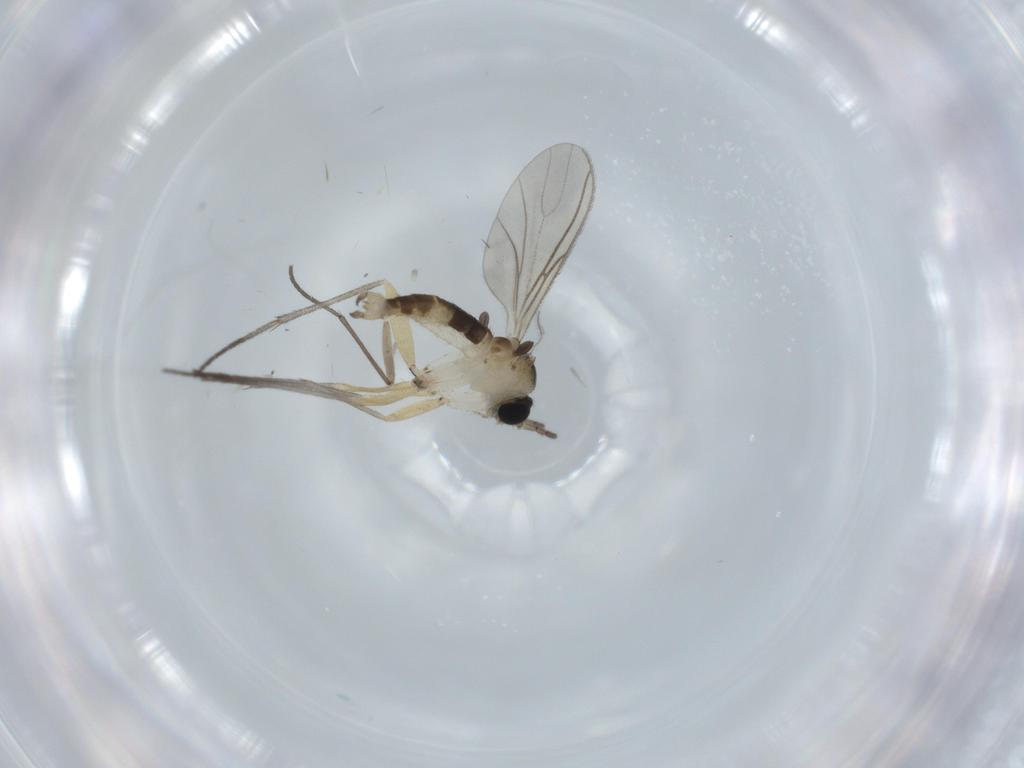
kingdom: Animalia
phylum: Arthropoda
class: Insecta
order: Diptera
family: Sciaridae
